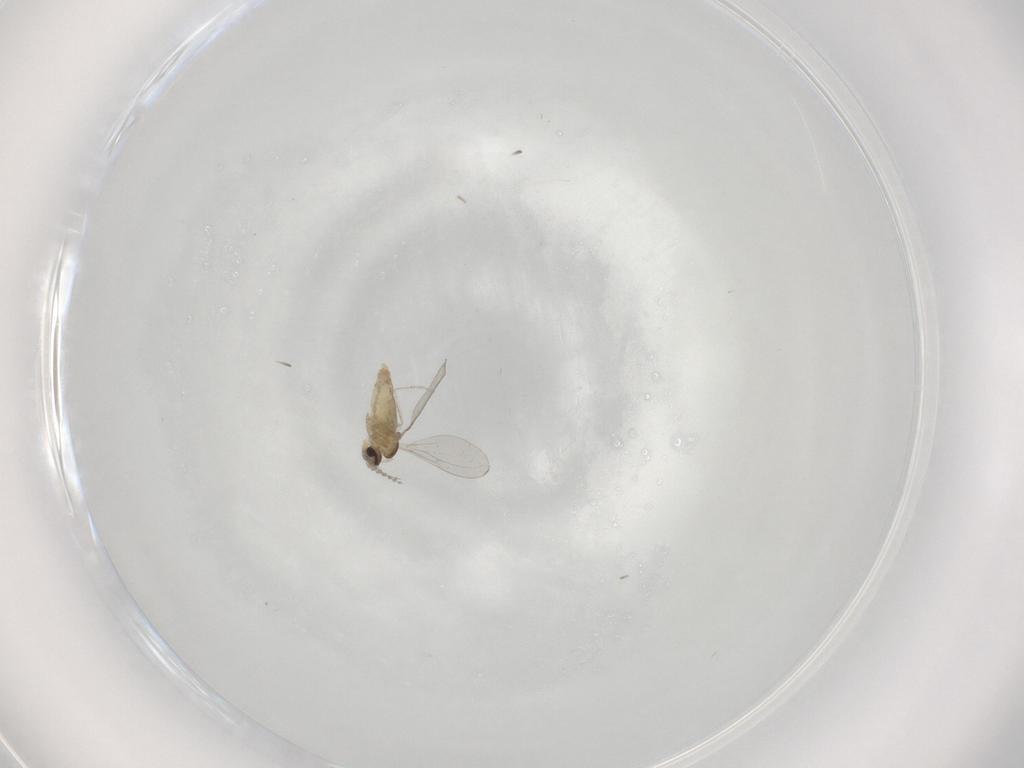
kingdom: Animalia
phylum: Arthropoda
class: Insecta
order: Diptera
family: Cecidomyiidae
